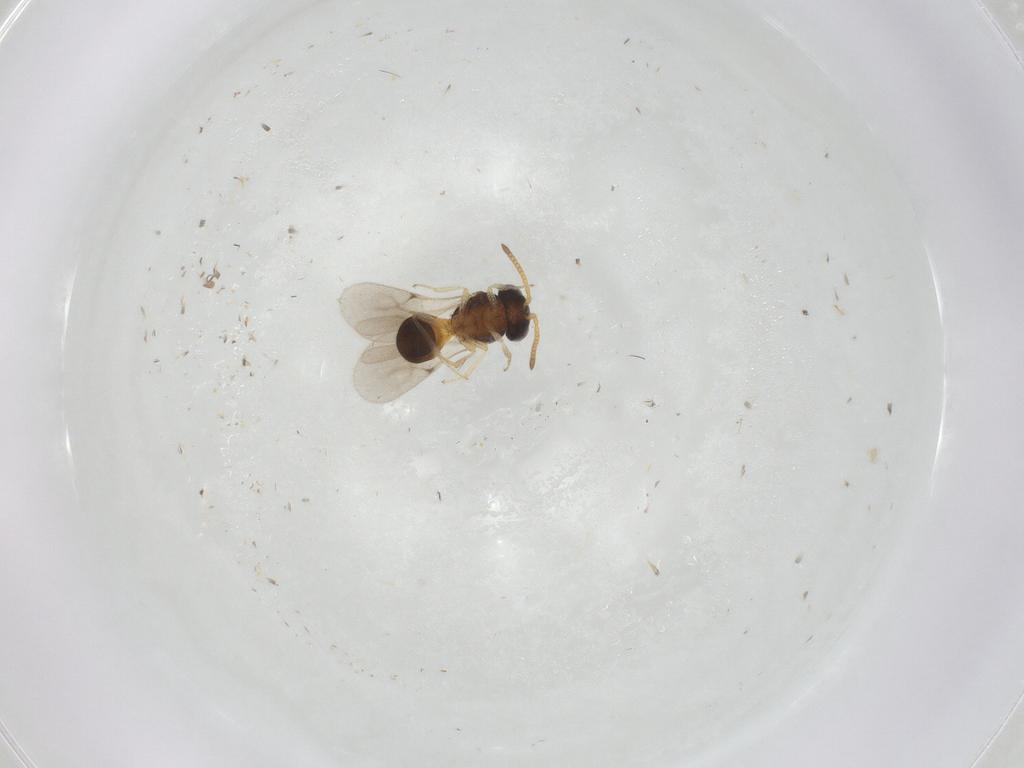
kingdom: Animalia
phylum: Arthropoda
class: Insecta
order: Hymenoptera
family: Scelionidae
